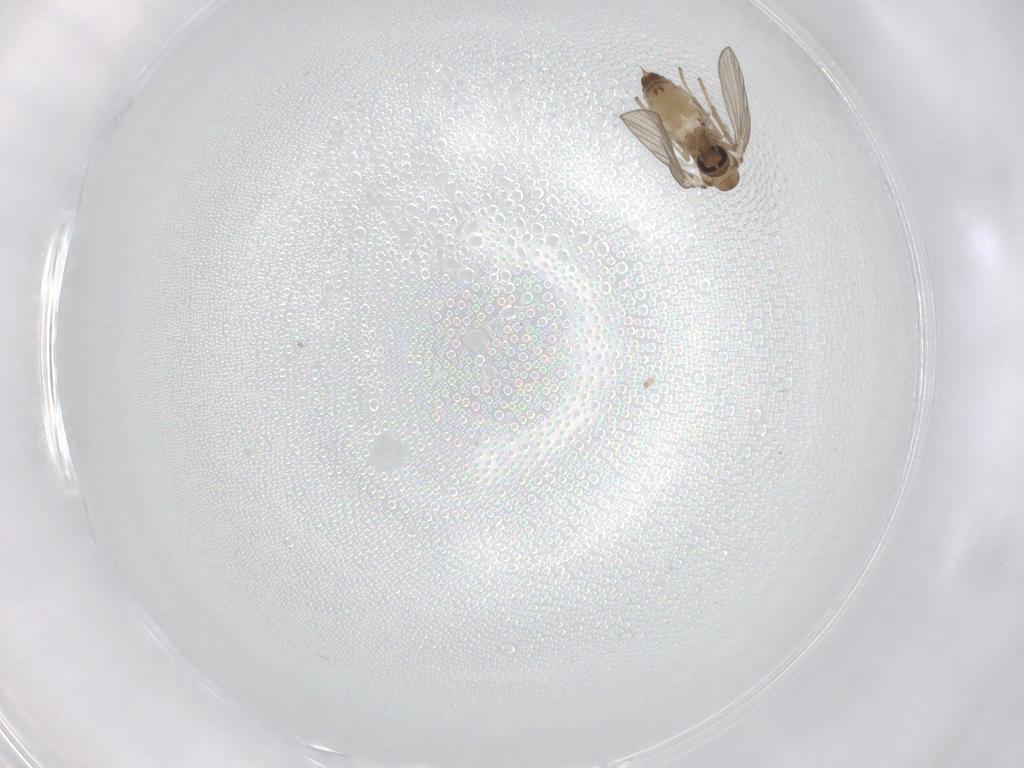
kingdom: Animalia
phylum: Arthropoda
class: Insecta
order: Diptera
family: Psychodidae
